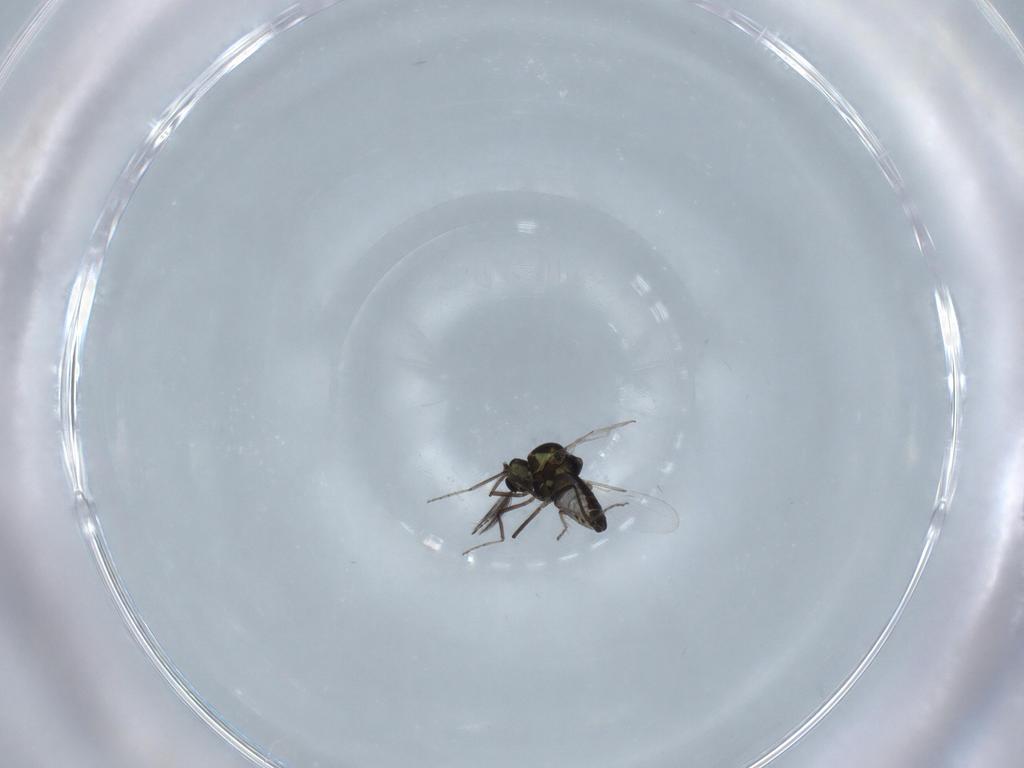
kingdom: Animalia
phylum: Arthropoda
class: Insecta
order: Diptera
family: Ceratopogonidae
